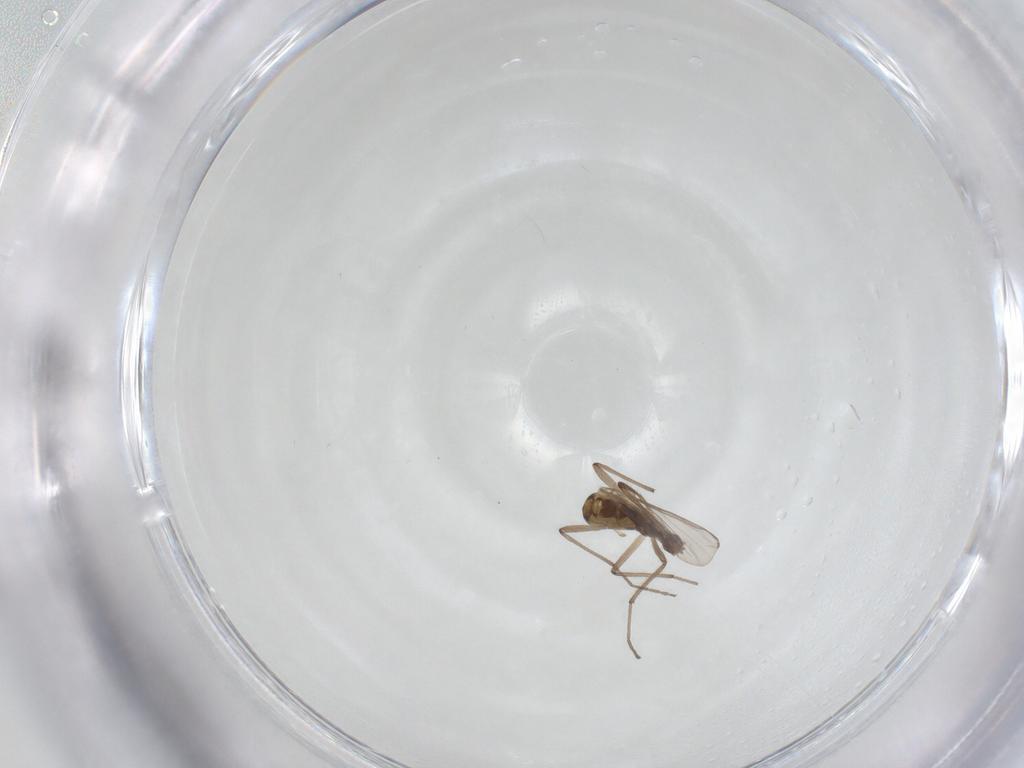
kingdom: Animalia
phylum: Arthropoda
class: Insecta
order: Diptera
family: Chironomidae
